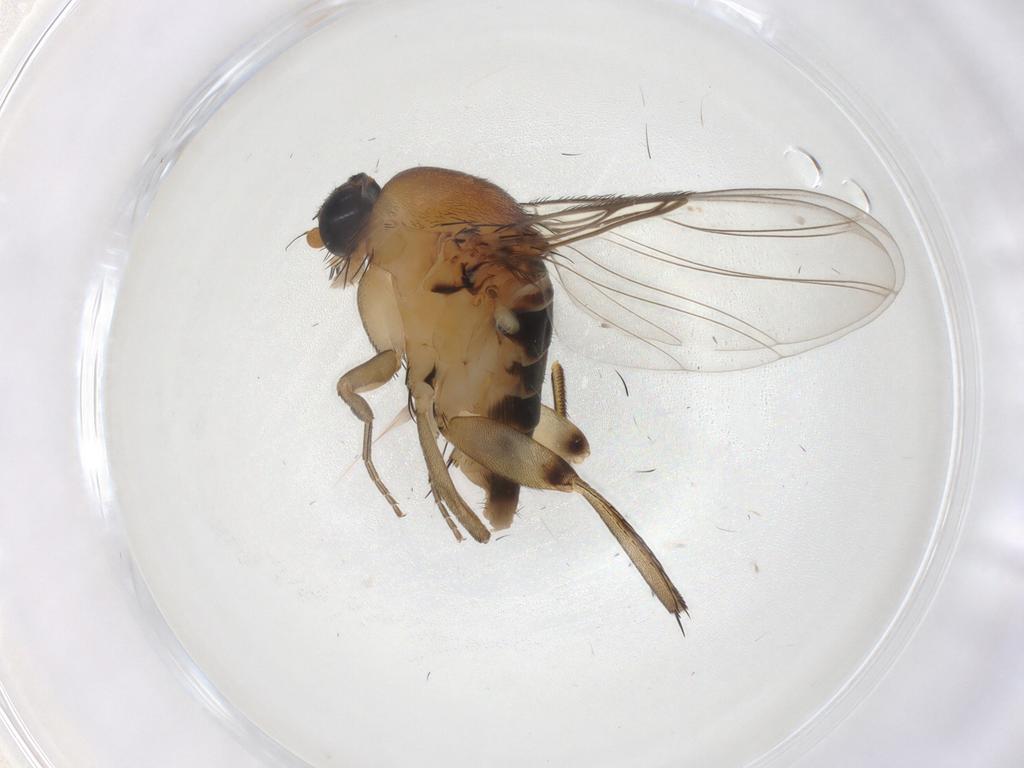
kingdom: Animalia
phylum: Arthropoda
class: Insecta
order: Diptera
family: Phoridae
